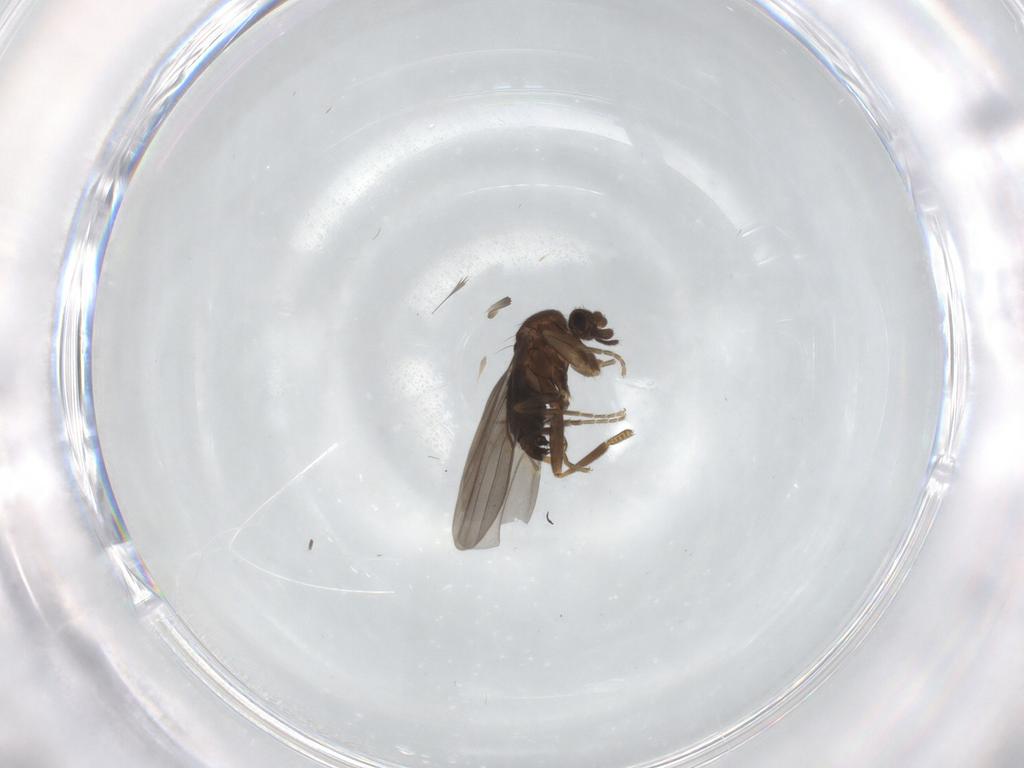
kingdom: Animalia
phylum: Arthropoda
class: Insecta
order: Diptera
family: Phoridae
